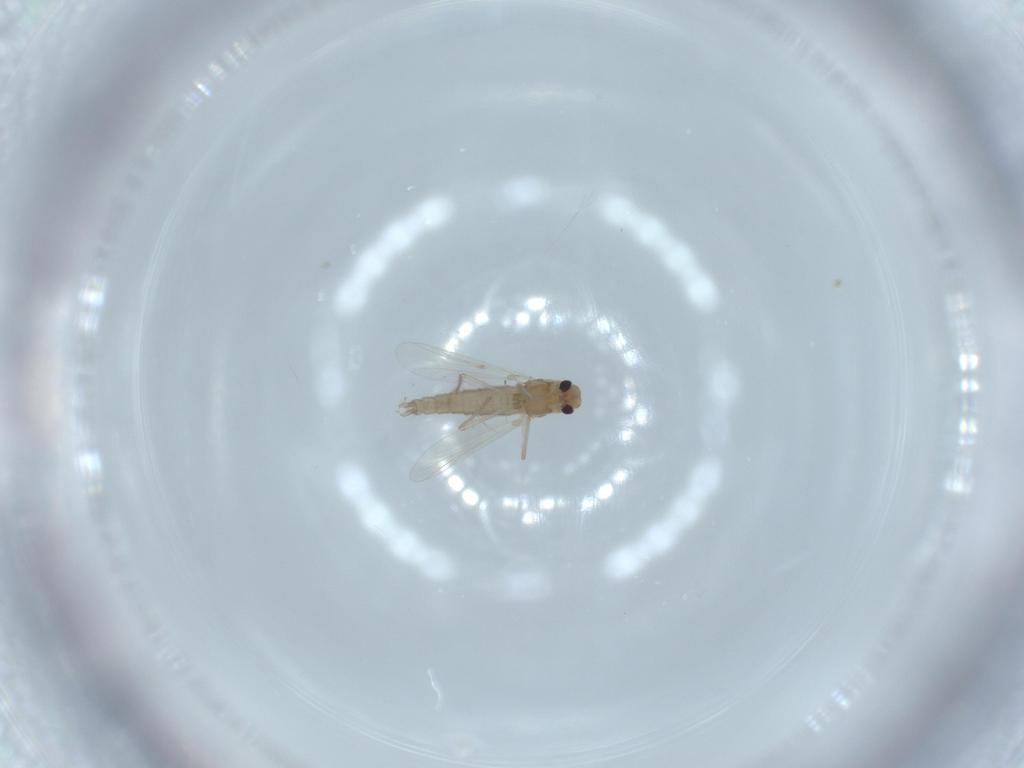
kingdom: Animalia
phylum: Arthropoda
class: Insecta
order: Diptera
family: Chironomidae
